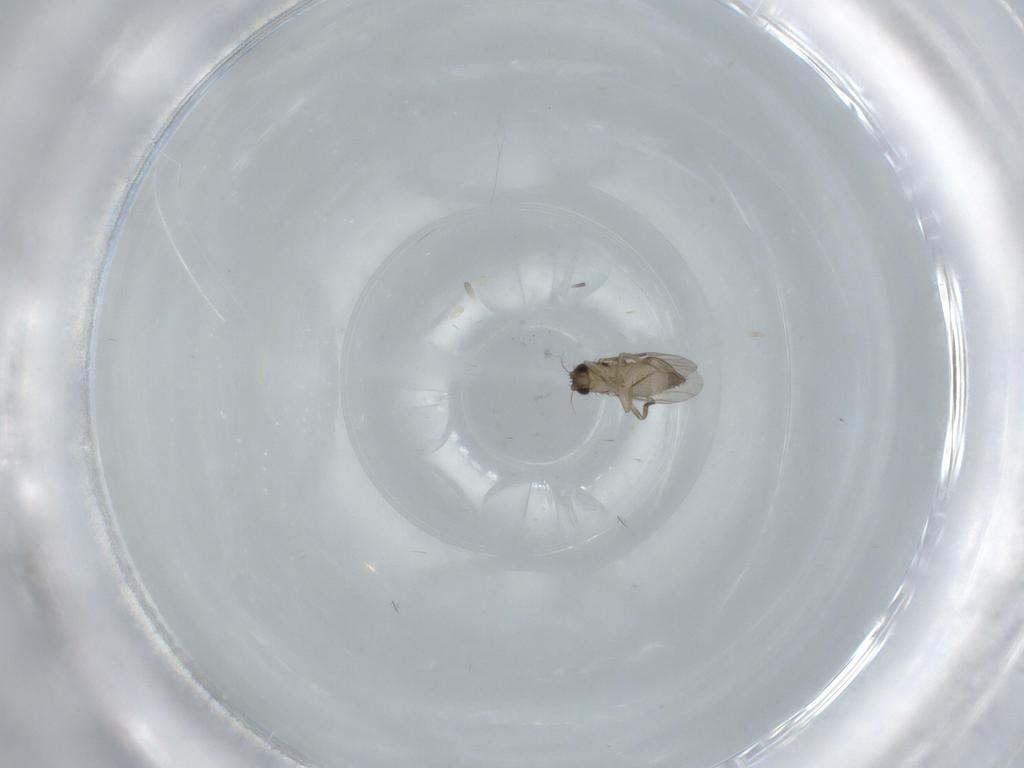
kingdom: Animalia
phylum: Arthropoda
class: Insecta
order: Diptera
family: Phoridae
